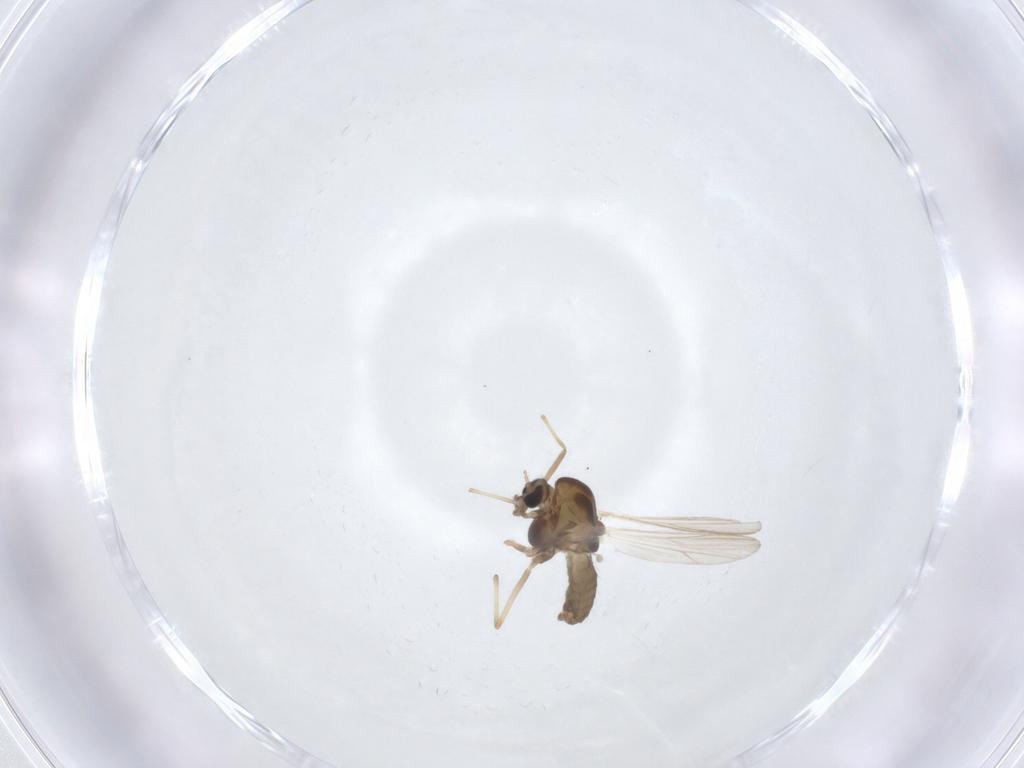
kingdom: Animalia
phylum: Arthropoda
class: Insecta
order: Diptera
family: Chironomidae
